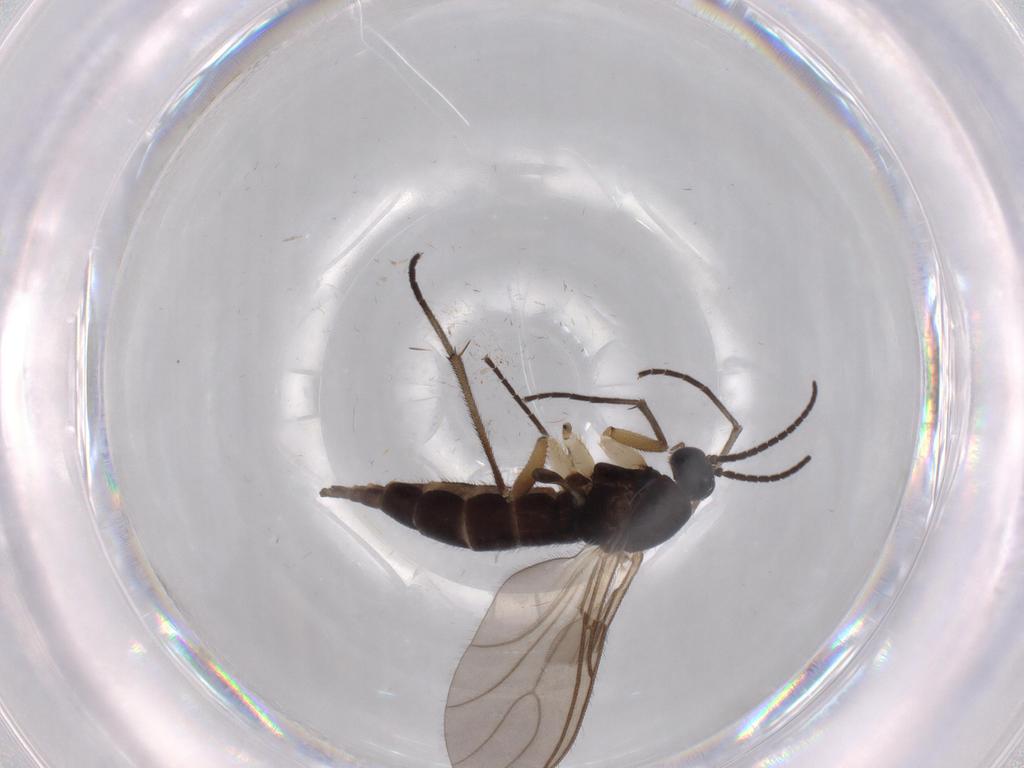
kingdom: Animalia
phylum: Arthropoda
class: Insecta
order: Diptera
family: Sciaridae
